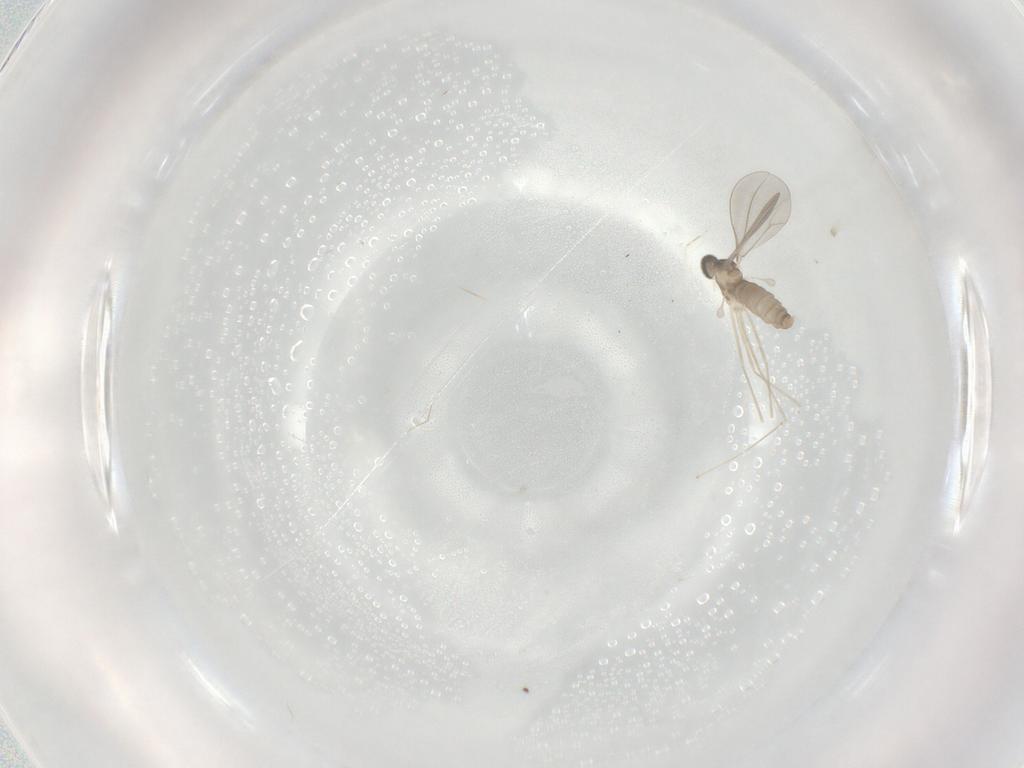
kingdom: Animalia
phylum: Arthropoda
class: Insecta
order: Diptera
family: Cecidomyiidae
